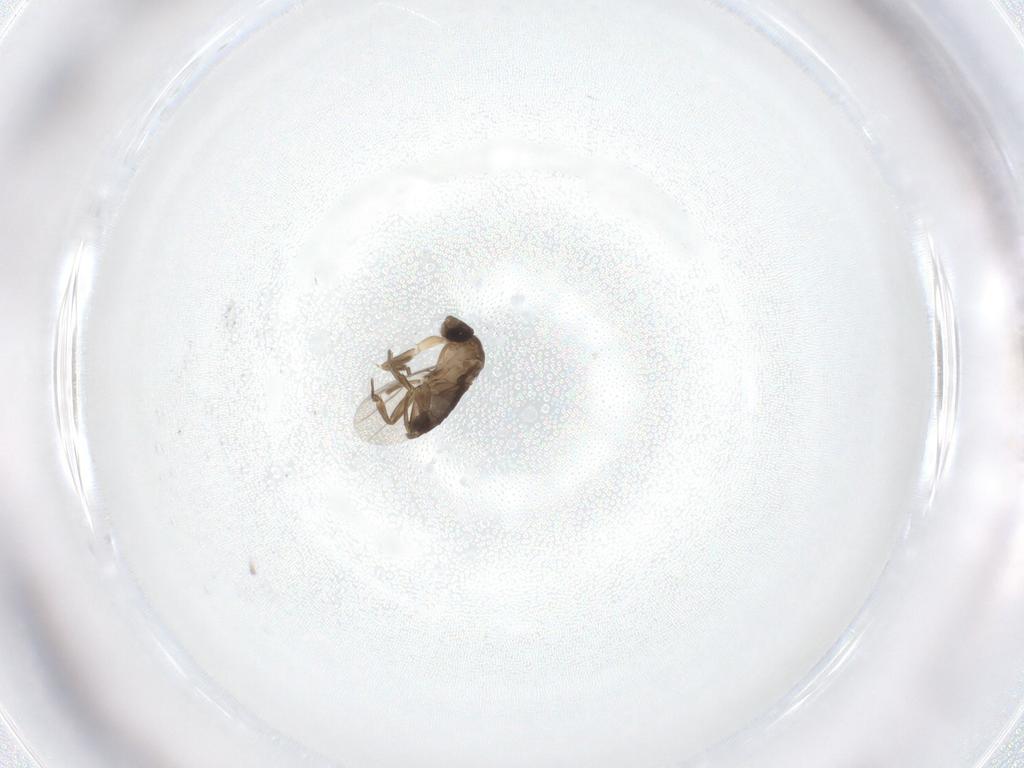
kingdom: Animalia
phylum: Arthropoda
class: Insecta
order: Diptera
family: Phoridae
